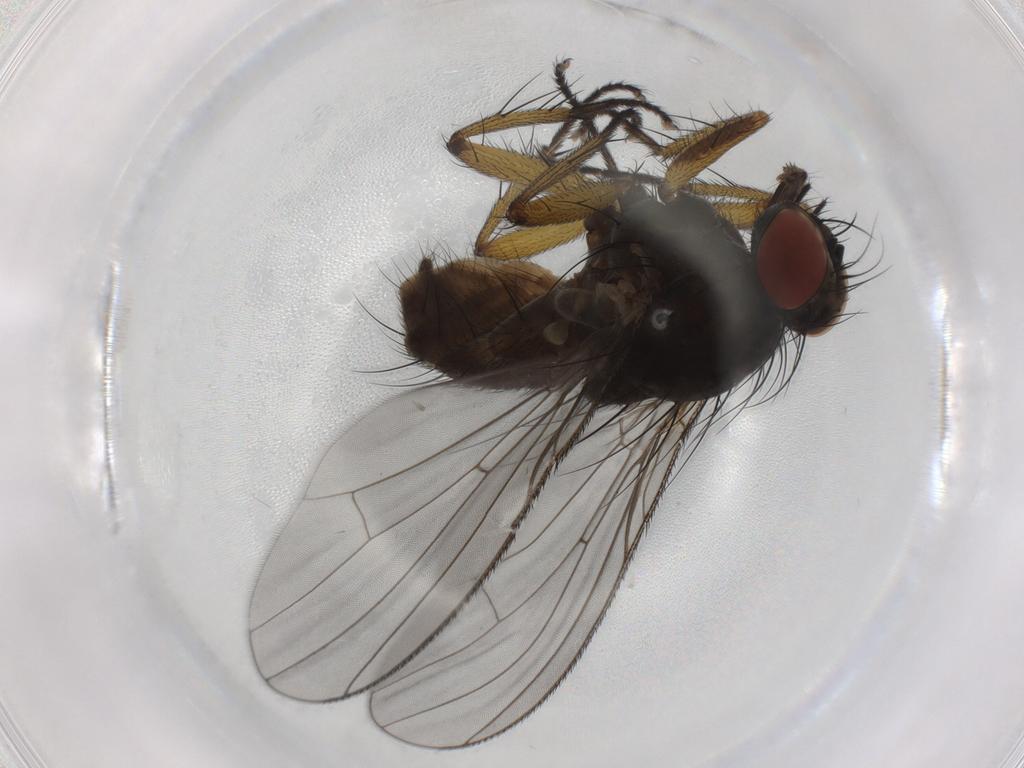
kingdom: Animalia
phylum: Arthropoda
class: Insecta
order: Diptera
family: Muscidae
